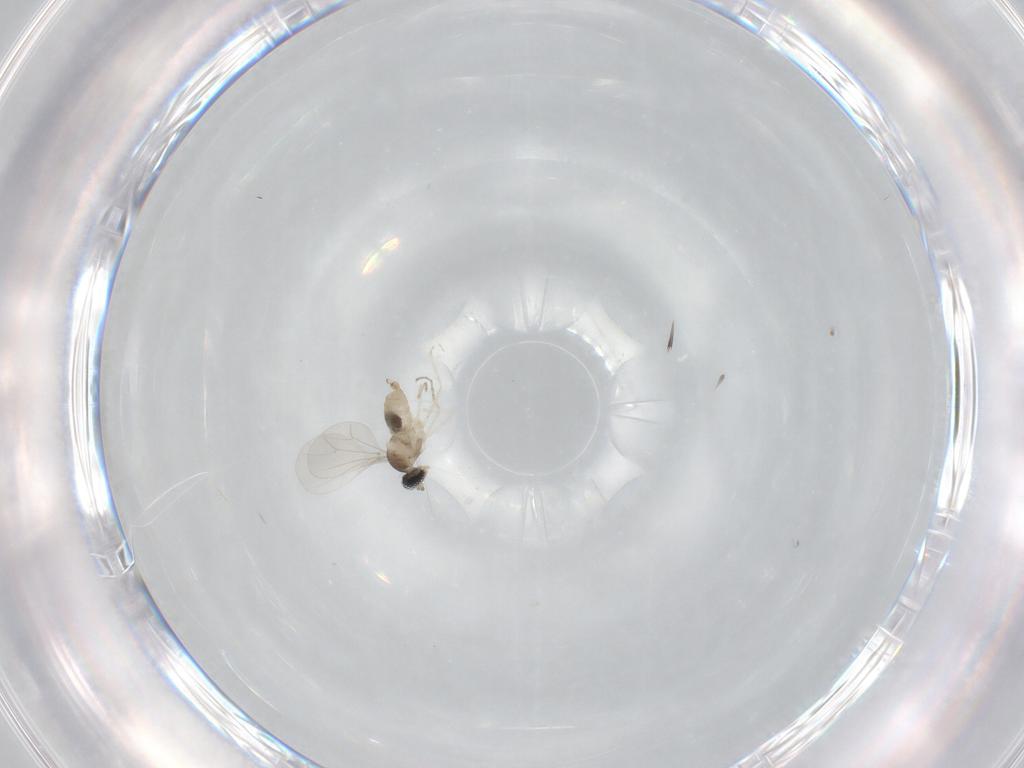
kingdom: Animalia
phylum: Arthropoda
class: Insecta
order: Diptera
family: Cecidomyiidae
